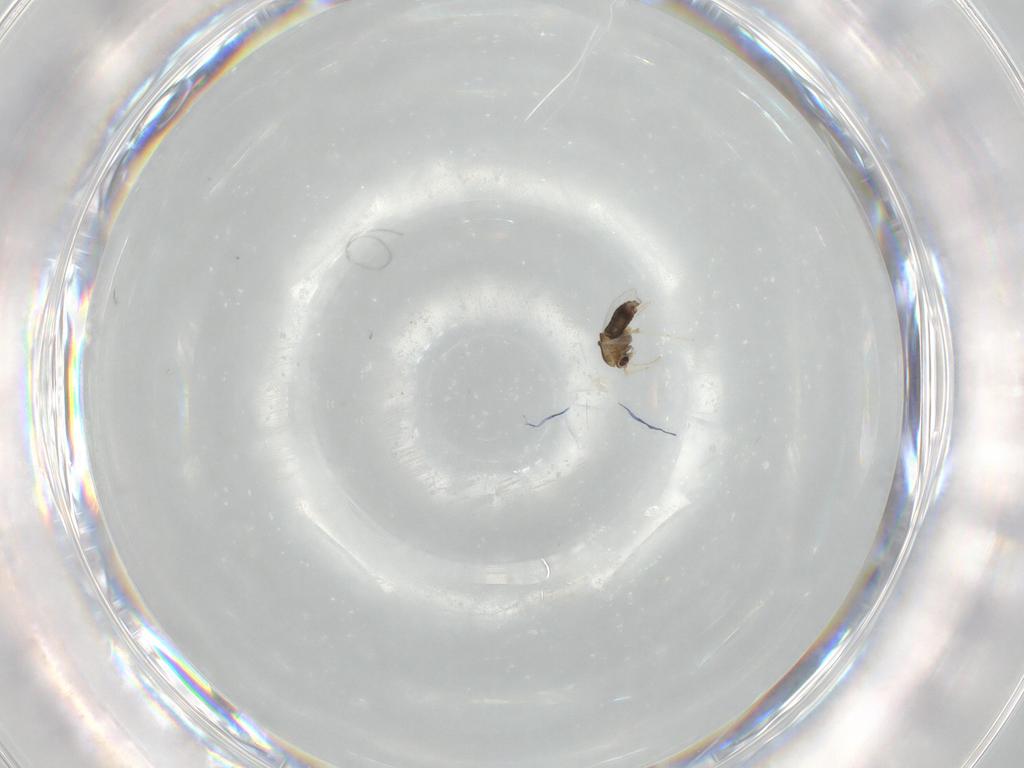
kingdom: Animalia
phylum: Arthropoda
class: Insecta
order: Diptera
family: Chironomidae
